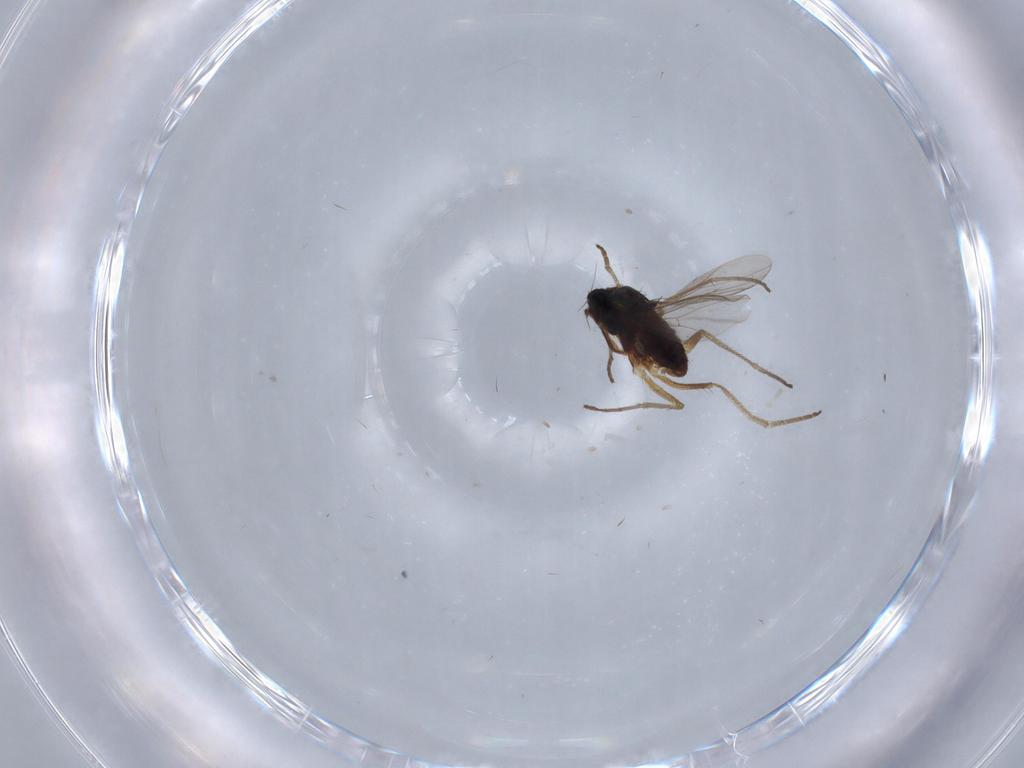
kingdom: Animalia
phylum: Arthropoda
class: Insecta
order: Diptera
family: Dolichopodidae
